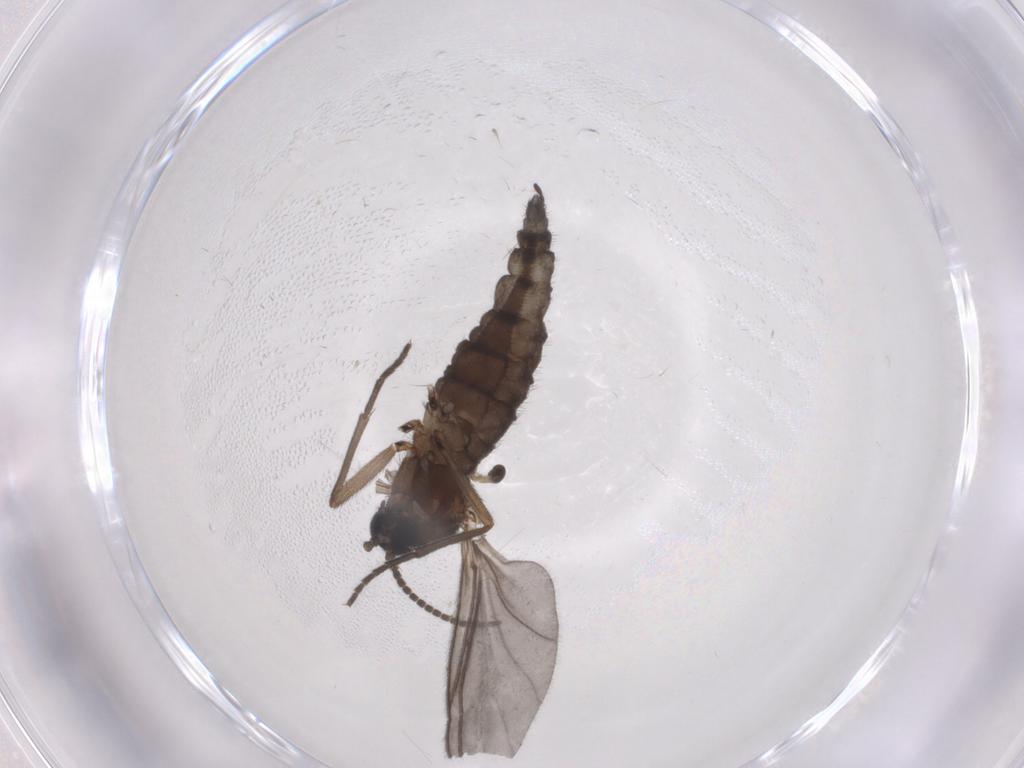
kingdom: Animalia
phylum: Arthropoda
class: Insecta
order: Diptera
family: Sciaridae
